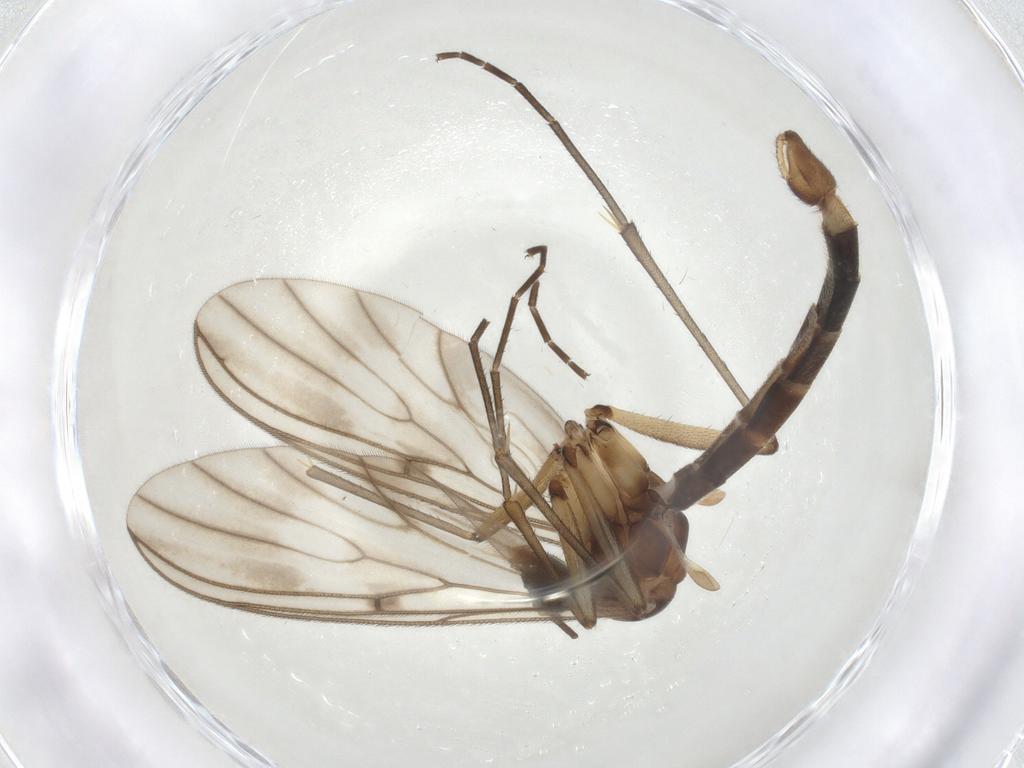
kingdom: Animalia
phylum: Arthropoda
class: Insecta
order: Diptera
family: Mycetophilidae
